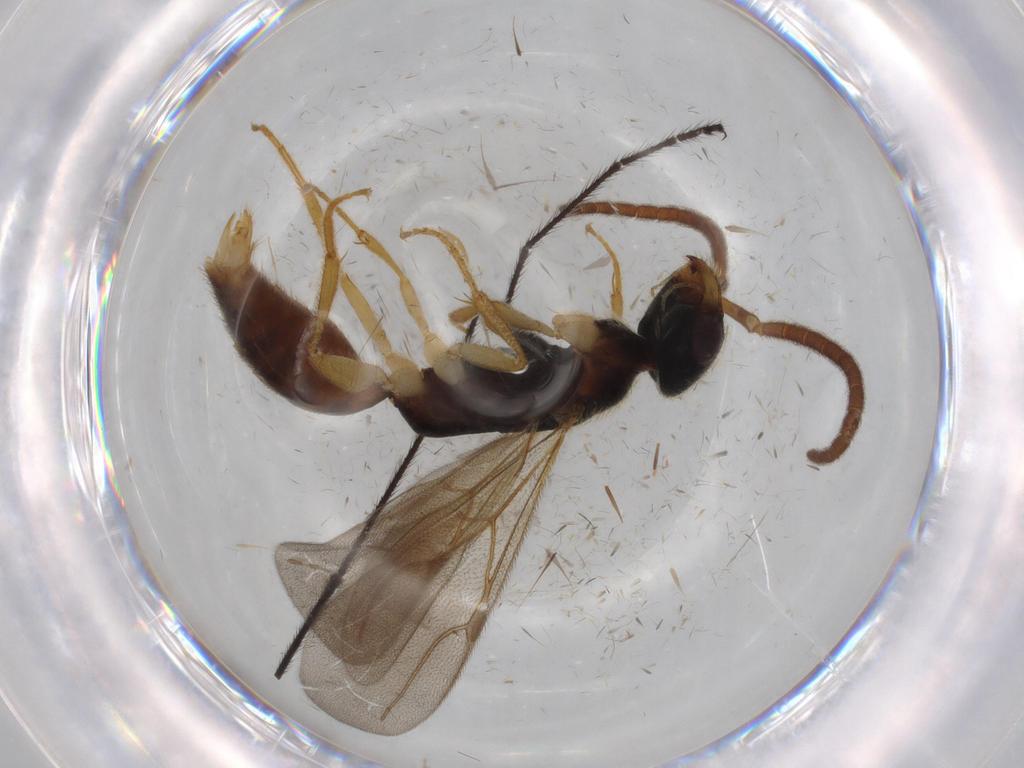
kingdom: Animalia
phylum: Arthropoda
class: Insecta
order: Hymenoptera
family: Bethylidae
